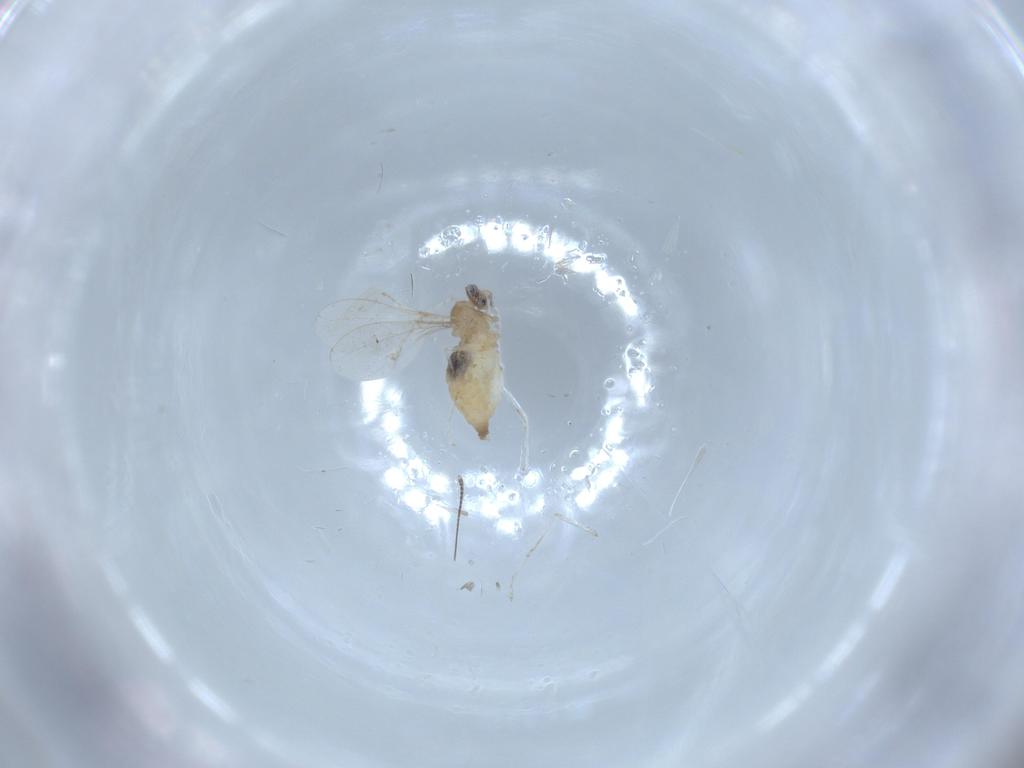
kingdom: Animalia
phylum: Arthropoda
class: Insecta
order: Diptera
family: Cecidomyiidae
